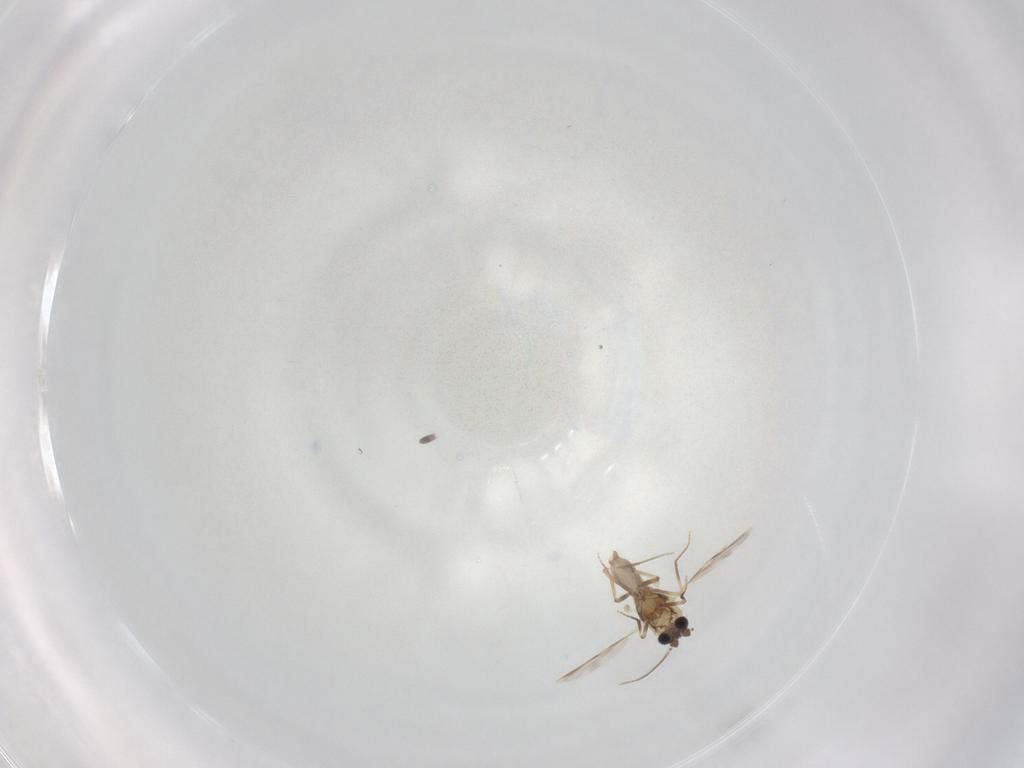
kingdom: Animalia
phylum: Arthropoda
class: Insecta
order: Diptera
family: Ceratopogonidae
